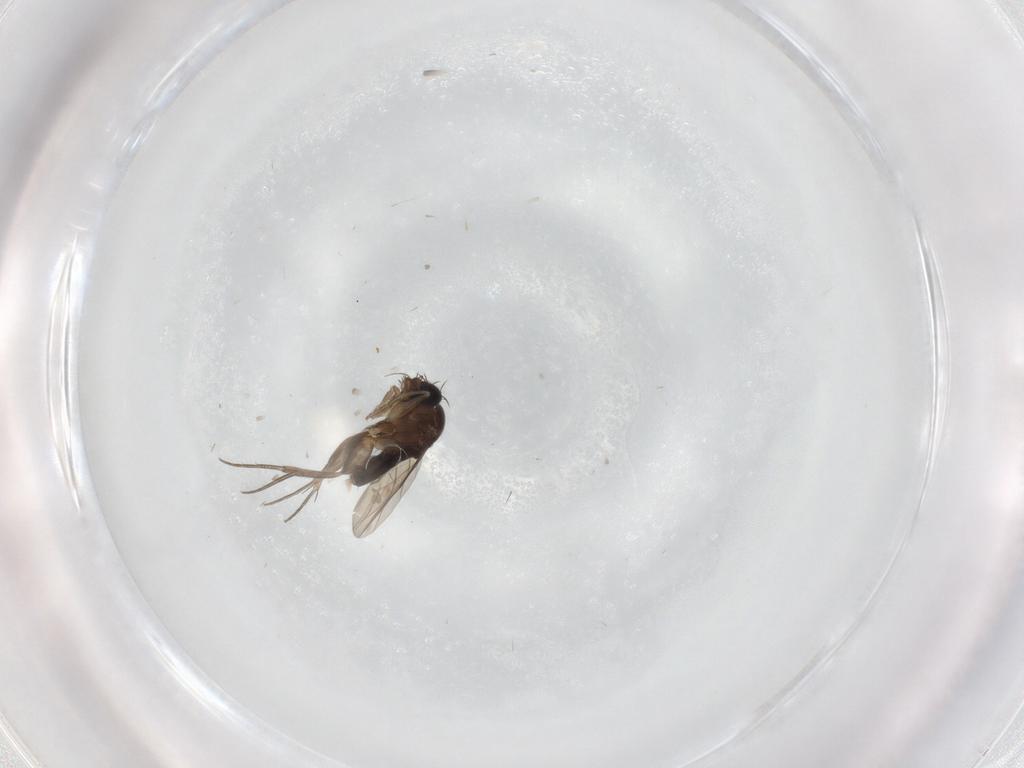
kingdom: Animalia
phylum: Arthropoda
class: Insecta
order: Diptera
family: Phoridae
